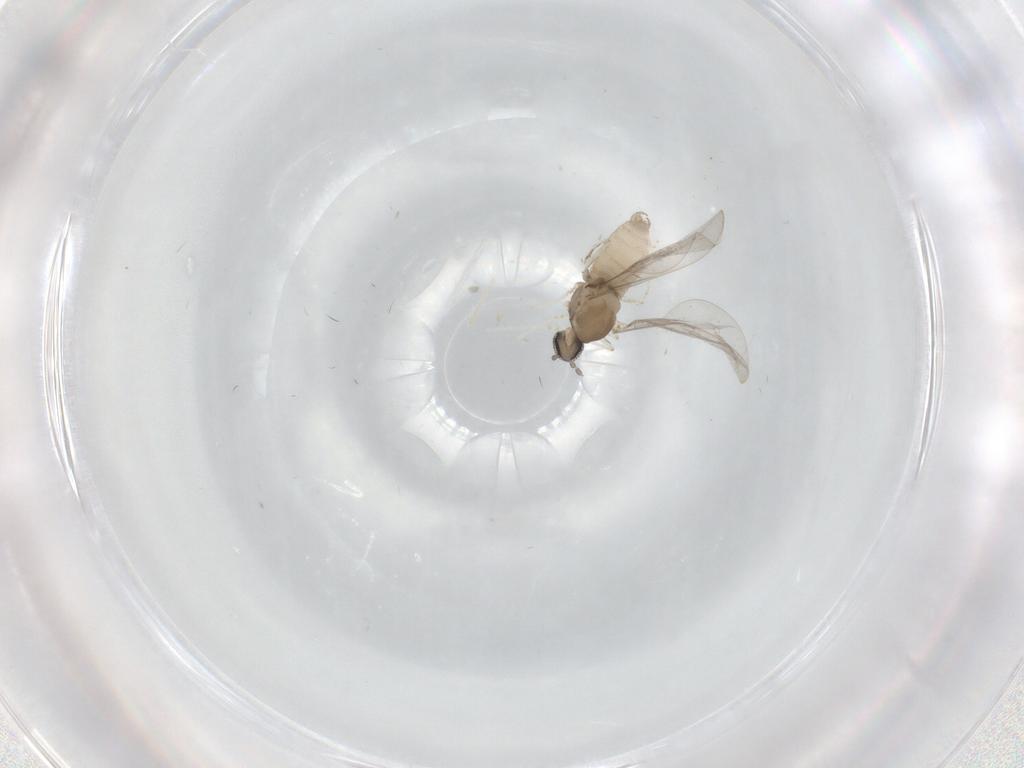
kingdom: Animalia
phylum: Arthropoda
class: Insecta
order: Diptera
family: Cecidomyiidae
